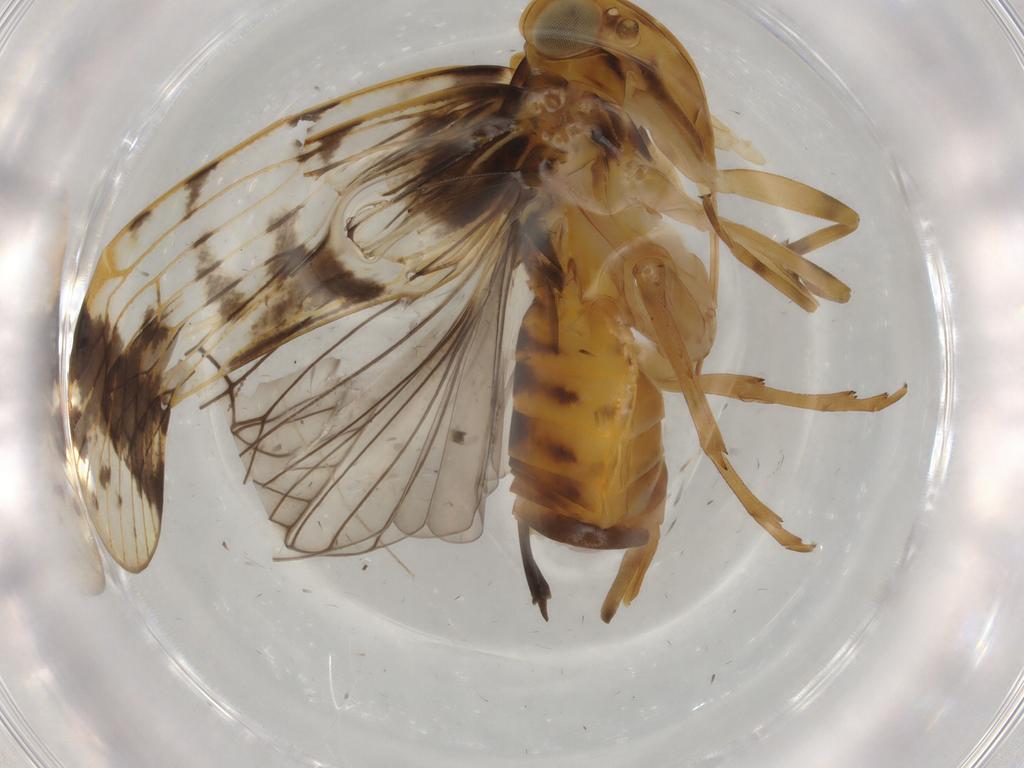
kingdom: Animalia
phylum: Arthropoda
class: Insecta
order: Hemiptera
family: Cixiidae
